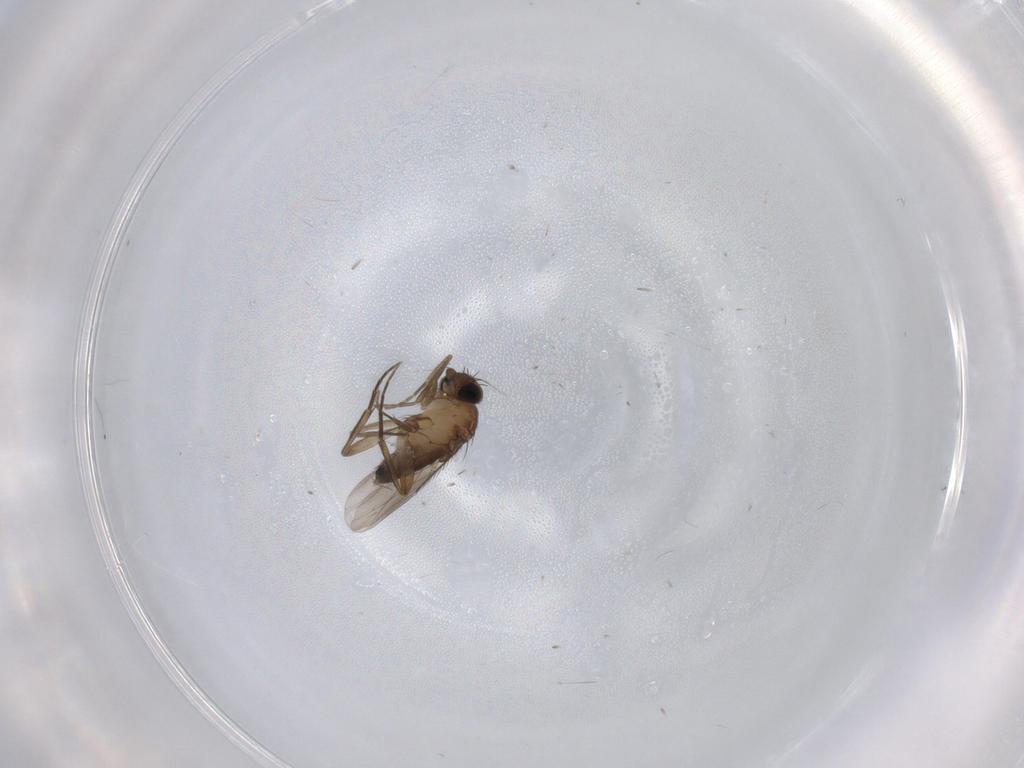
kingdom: Animalia
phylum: Arthropoda
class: Insecta
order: Diptera
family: Phoridae
